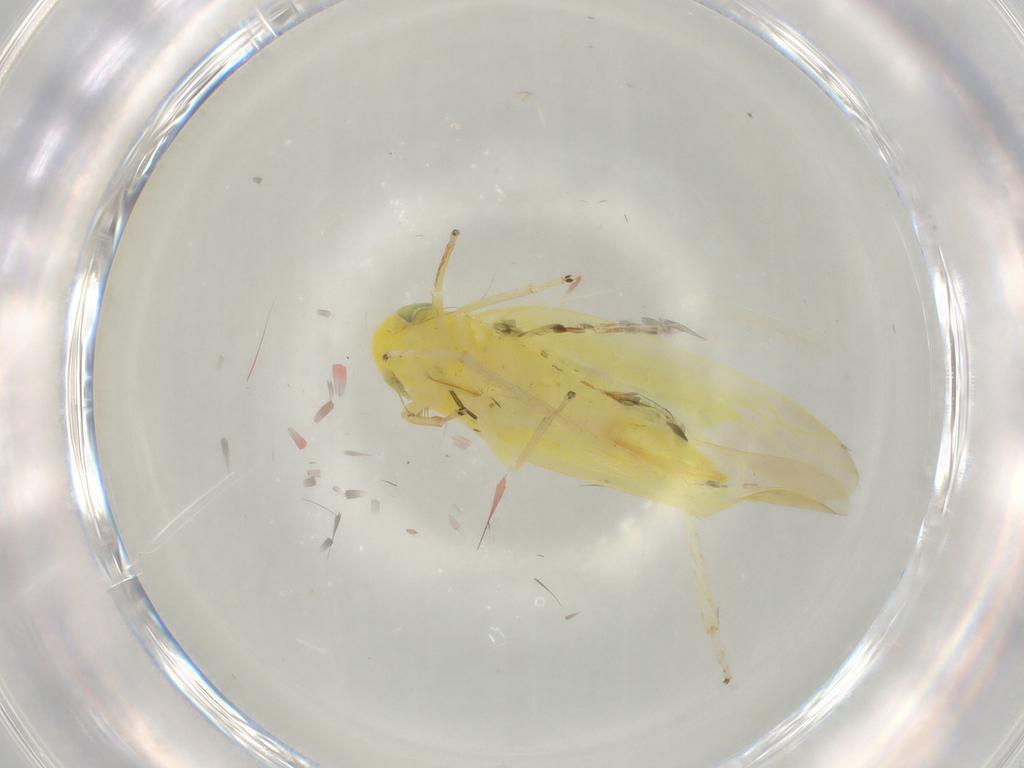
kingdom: Animalia
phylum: Arthropoda
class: Insecta
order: Hemiptera
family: Cicadellidae
